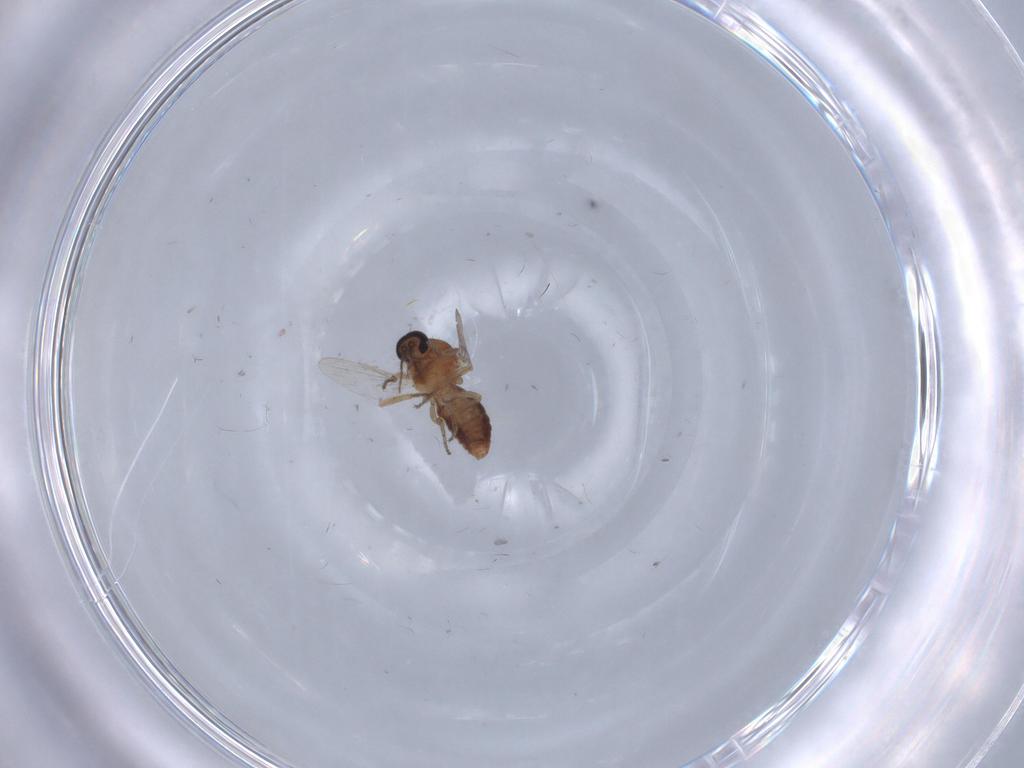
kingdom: Animalia
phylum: Arthropoda
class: Insecta
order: Diptera
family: Ceratopogonidae
